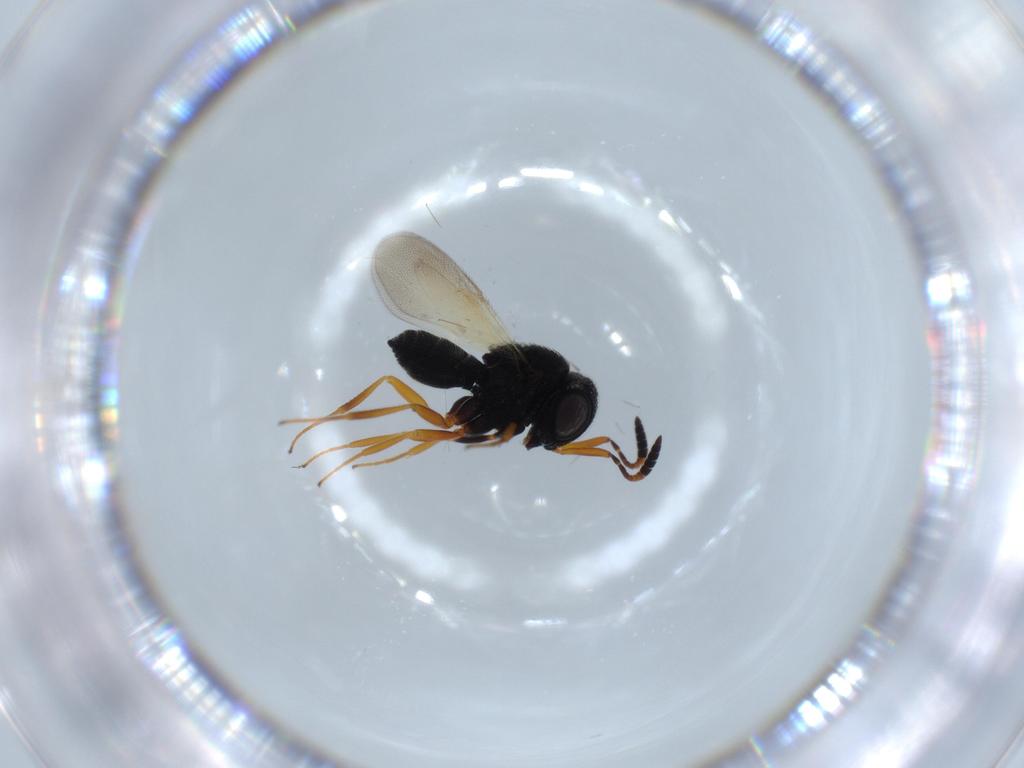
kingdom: Animalia
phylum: Arthropoda
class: Insecta
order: Hymenoptera
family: Scelionidae
